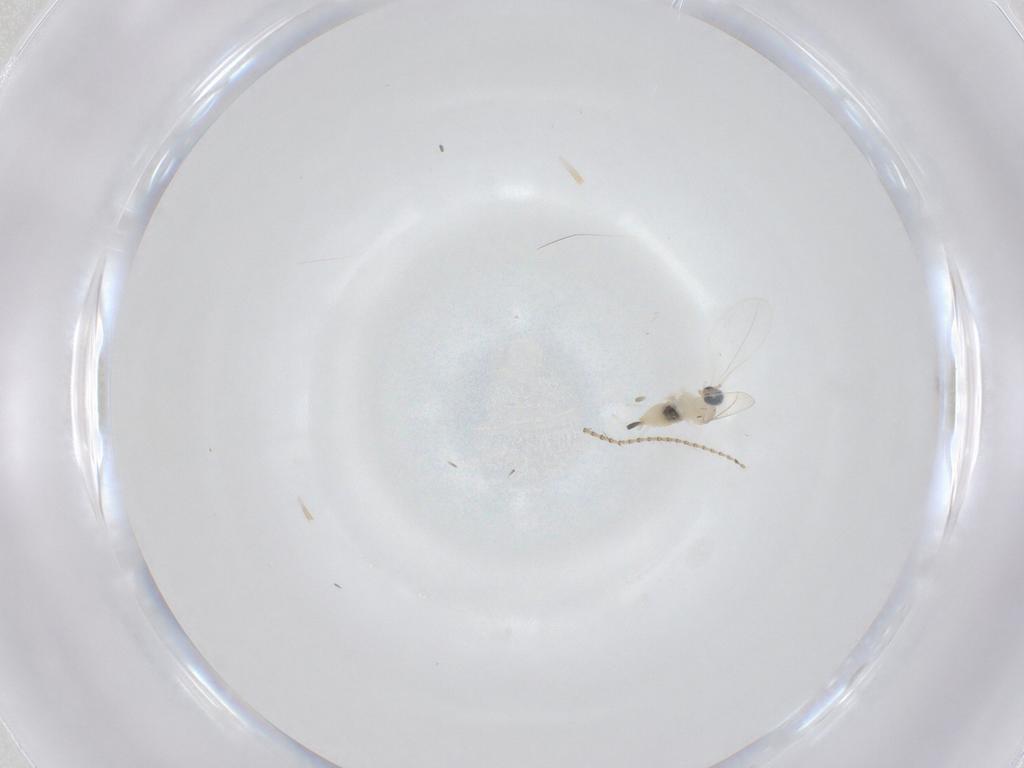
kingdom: Animalia
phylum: Arthropoda
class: Insecta
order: Diptera
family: Cecidomyiidae
